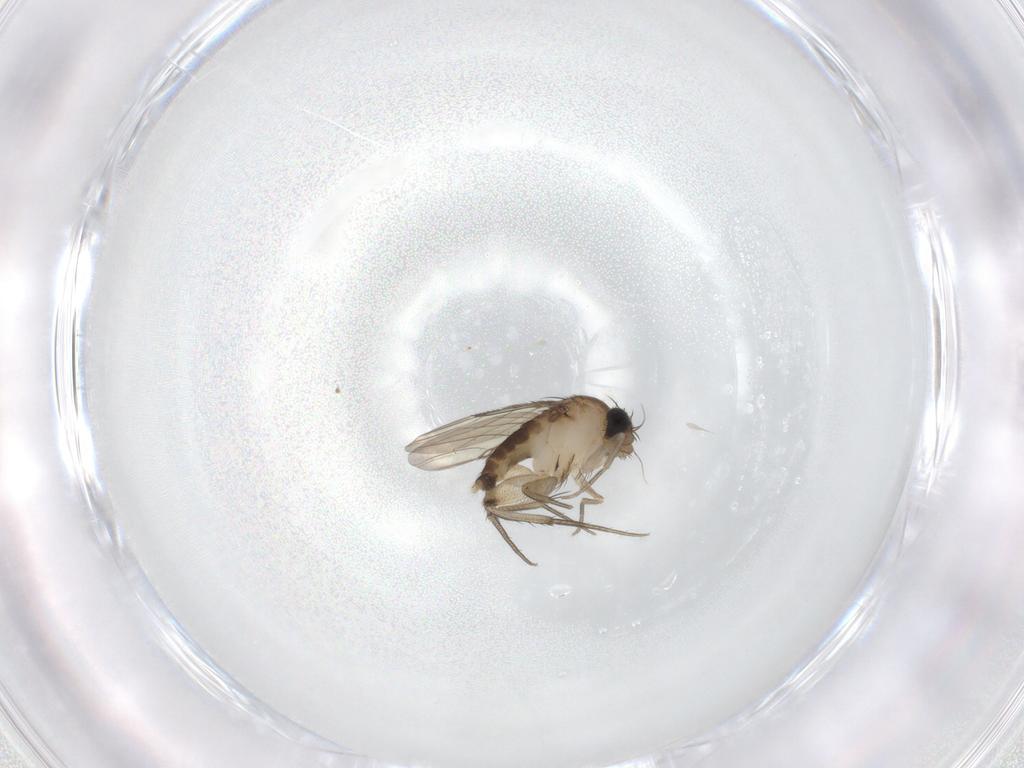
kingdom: Animalia
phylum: Arthropoda
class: Insecta
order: Diptera
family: Phoridae
